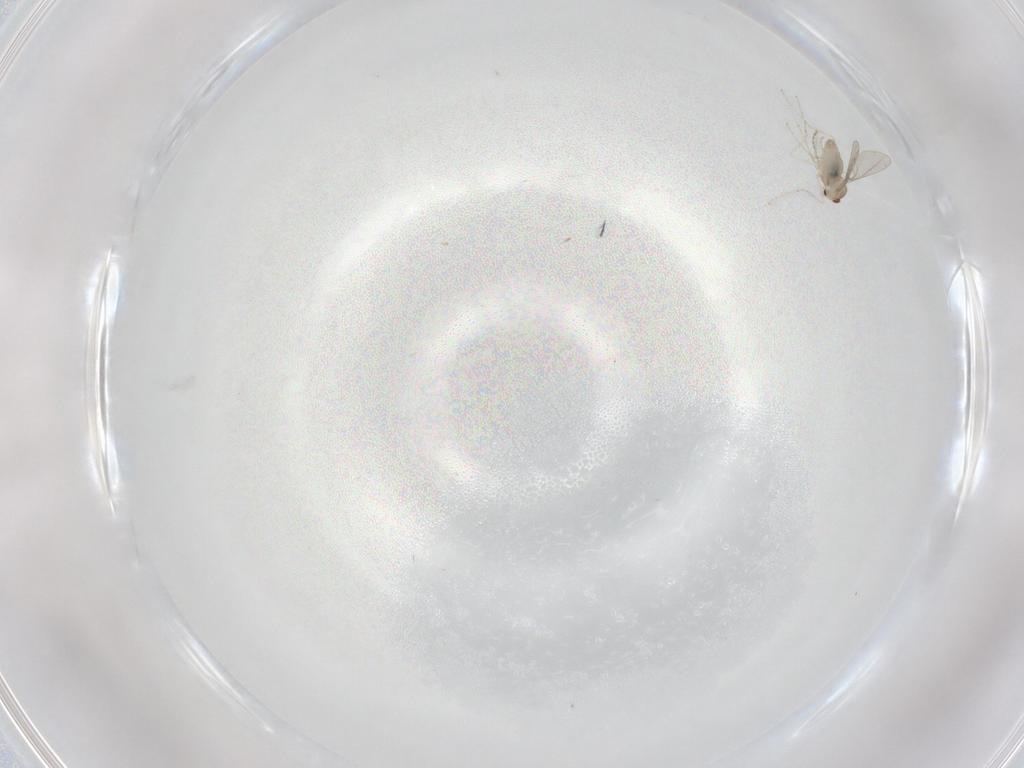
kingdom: Animalia
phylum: Arthropoda
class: Insecta
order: Diptera
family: Cecidomyiidae
